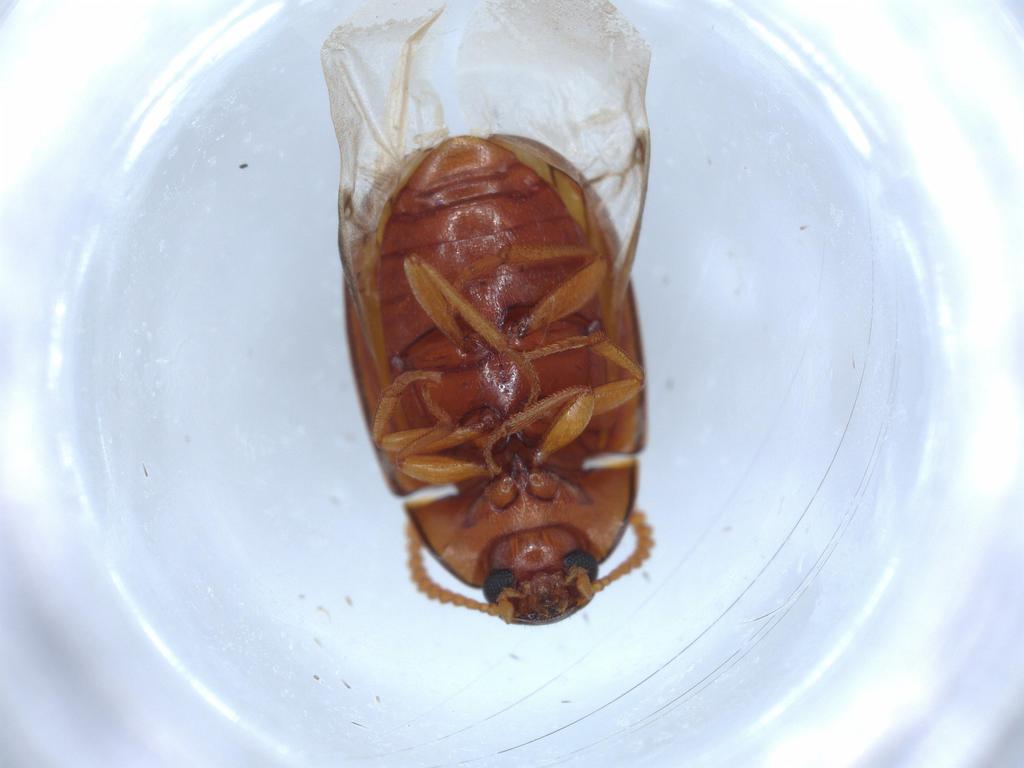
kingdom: Animalia
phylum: Arthropoda
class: Insecta
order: Coleoptera
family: Dermestidae
